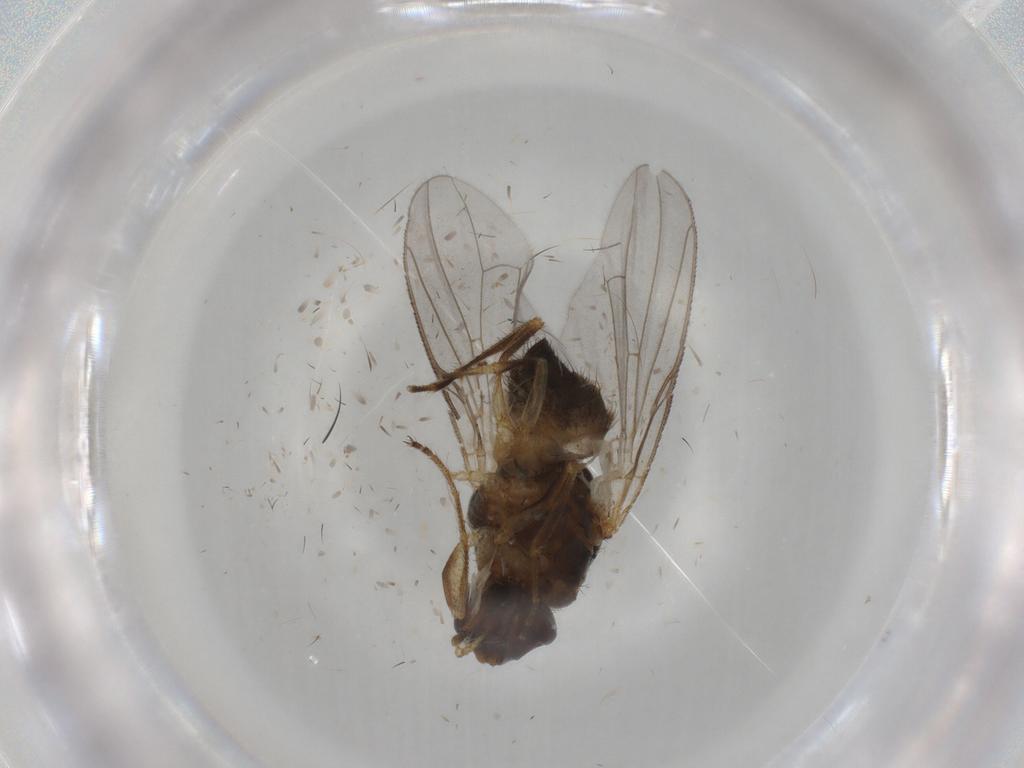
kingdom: Animalia
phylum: Arthropoda
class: Insecta
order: Diptera
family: Muscidae
